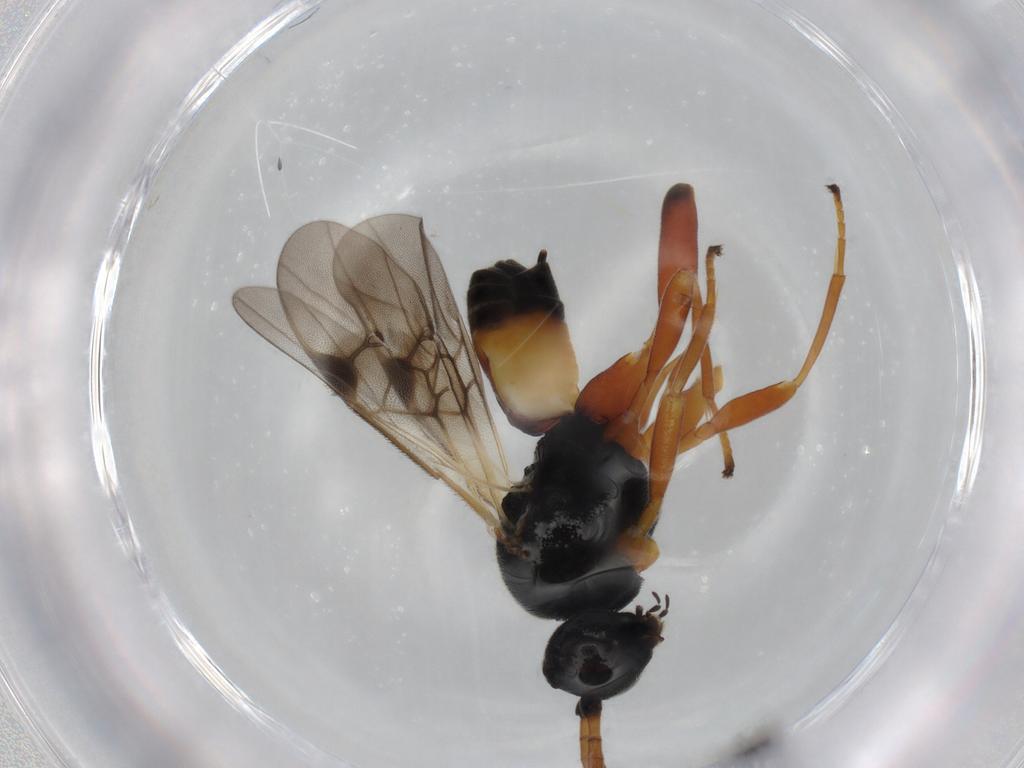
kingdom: Animalia
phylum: Arthropoda
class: Insecta
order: Hymenoptera
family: Braconidae
